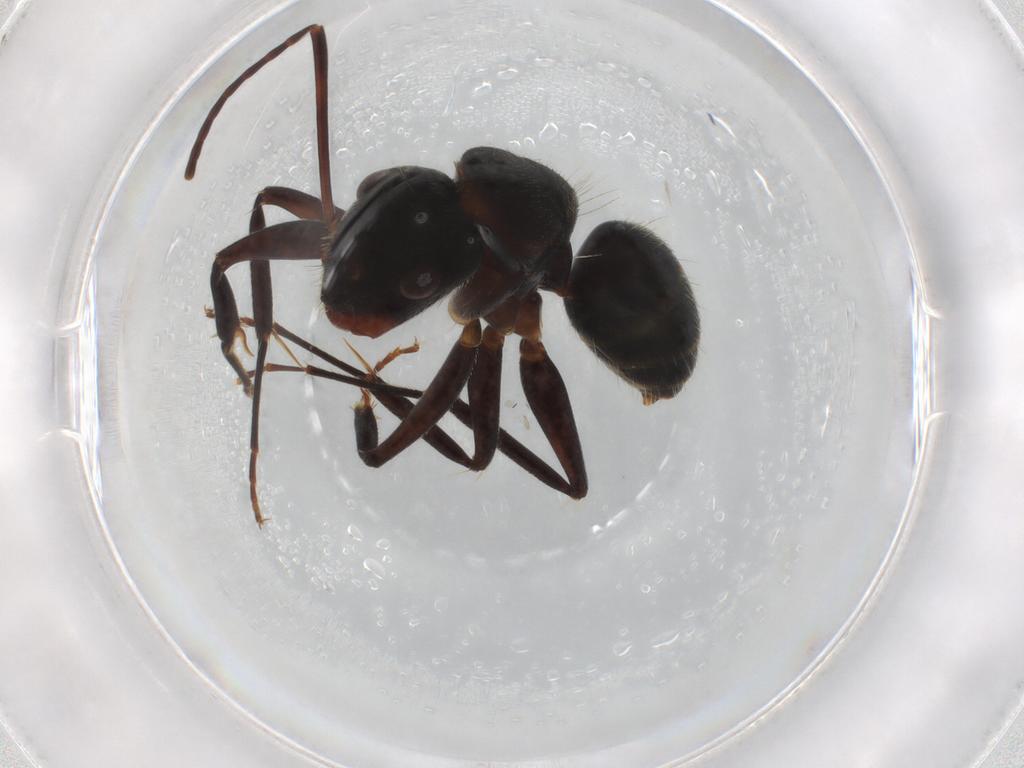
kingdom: Animalia
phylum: Arthropoda
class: Insecta
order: Hymenoptera
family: Formicidae
